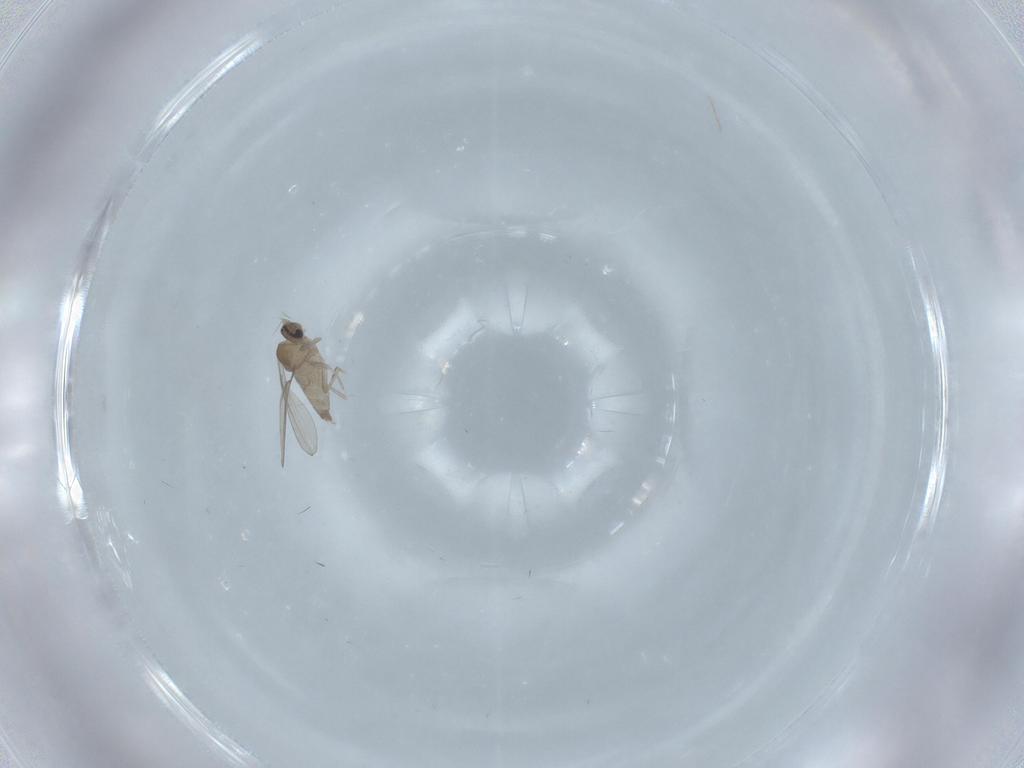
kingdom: Animalia
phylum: Arthropoda
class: Insecta
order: Diptera
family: Cecidomyiidae
